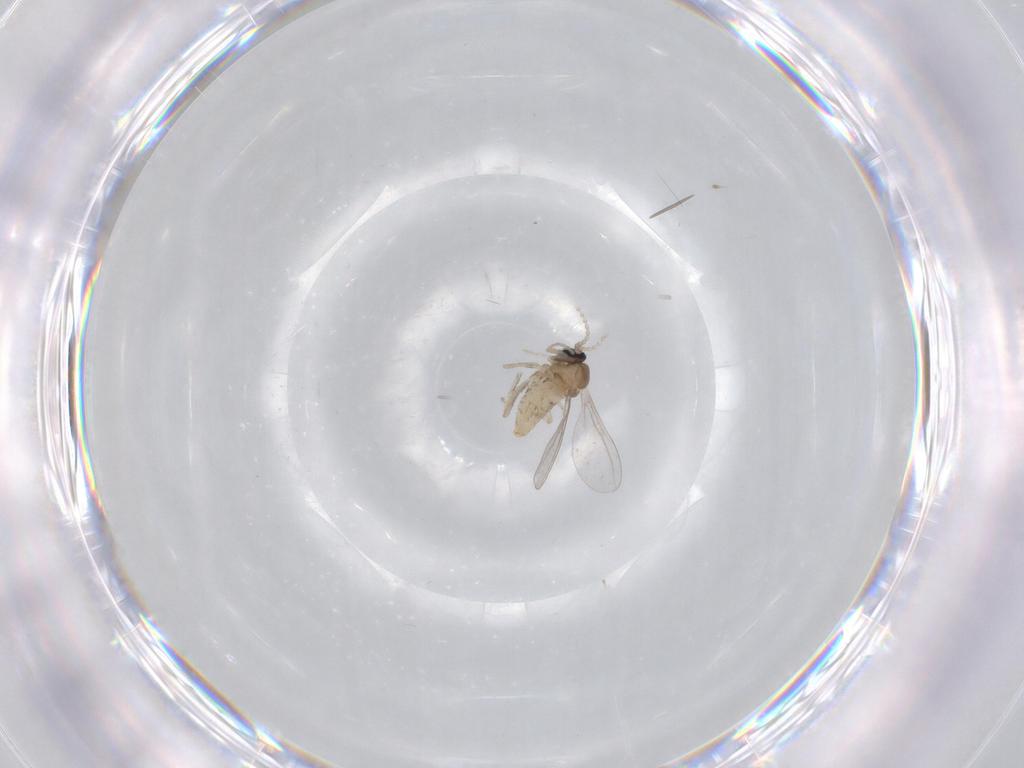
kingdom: Animalia
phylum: Arthropoda
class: Insecta
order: Diptera
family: Cecidomyiidae
